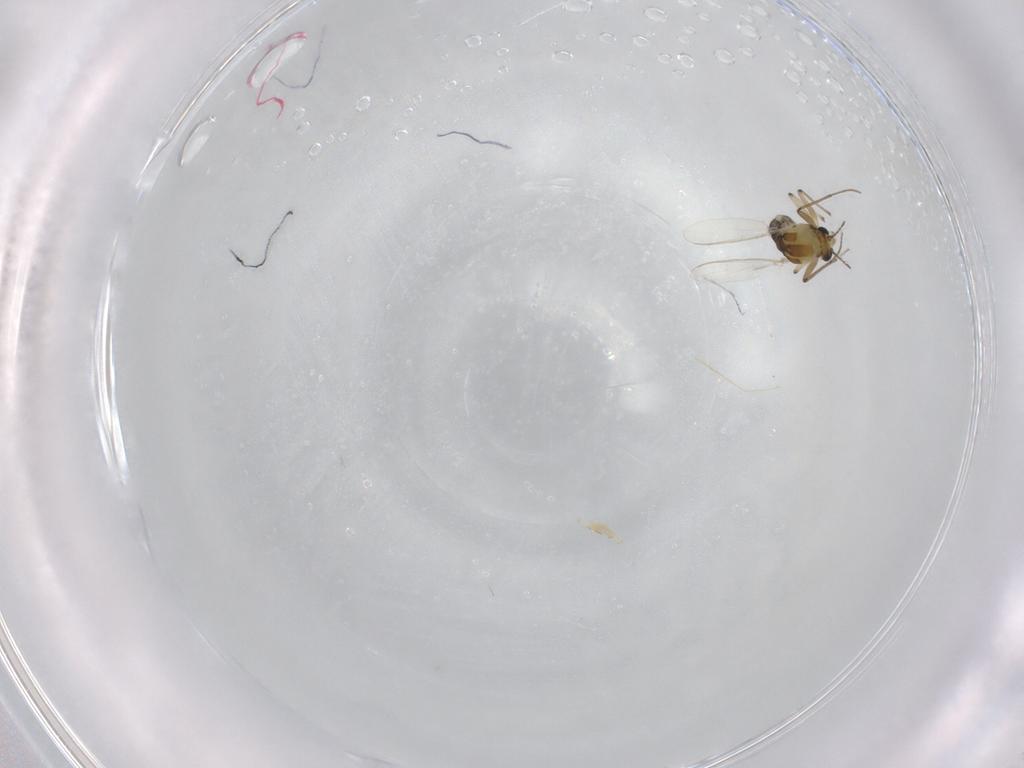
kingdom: Animalia
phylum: Arthropoda
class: Insecta
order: Diptera
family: Chironomidae
